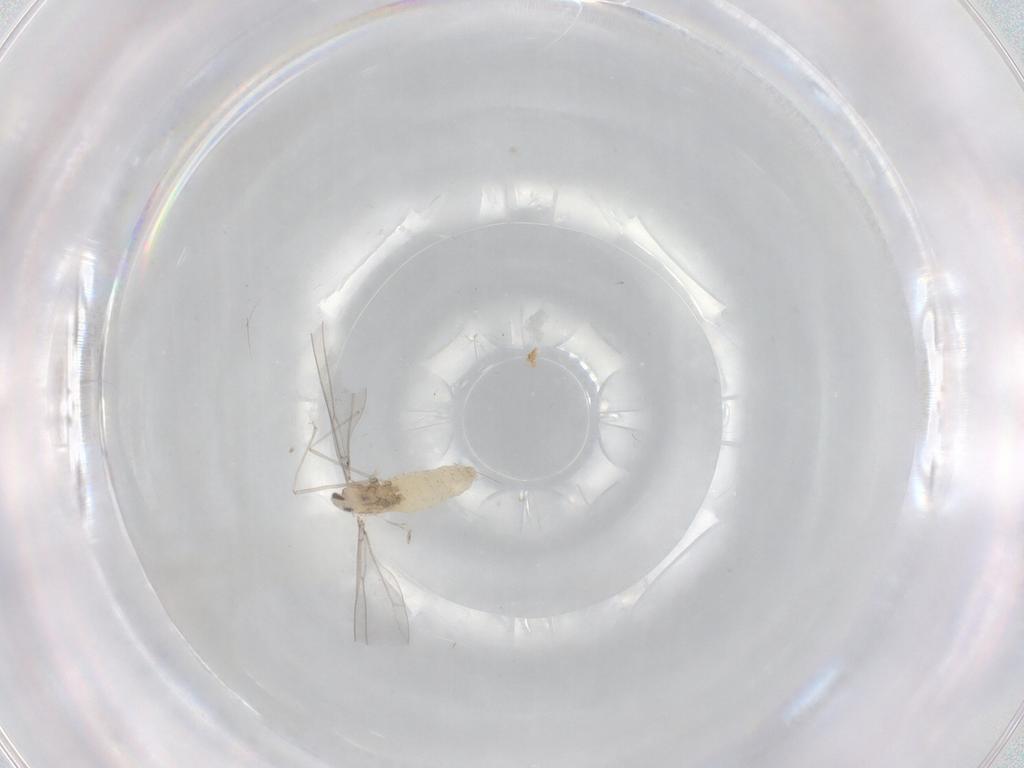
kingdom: Animalia
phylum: Arthropoda
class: Insecta
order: Diptera
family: Cecidomyiidae
